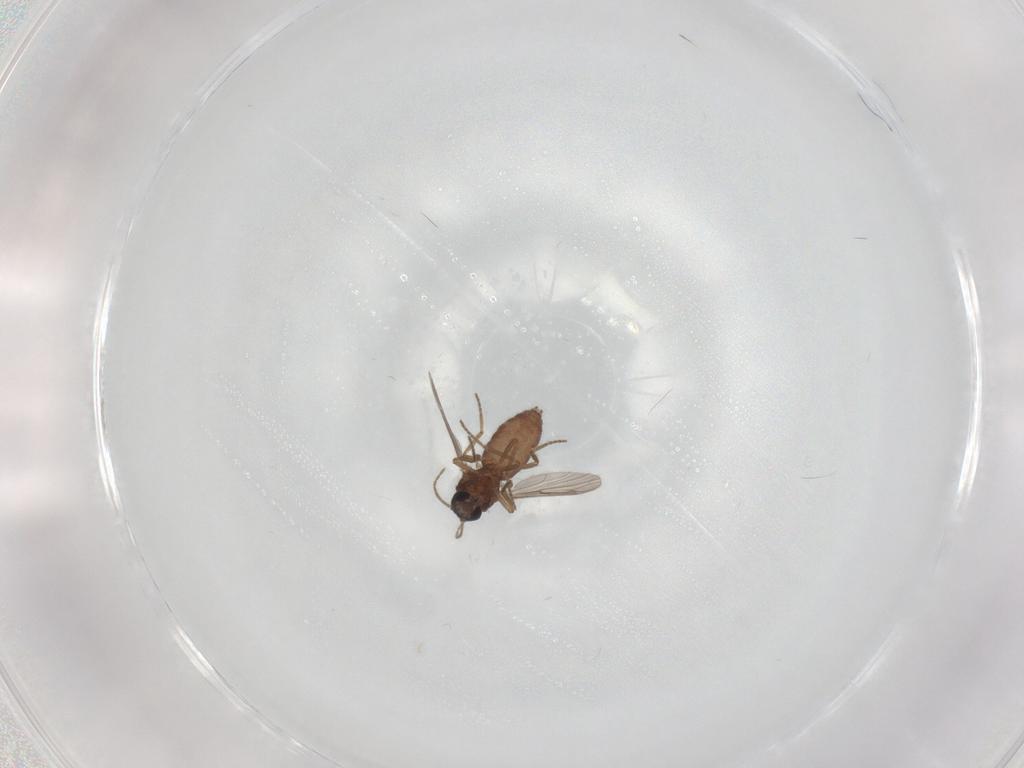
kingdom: Animalia
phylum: Arthropoda
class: Insecta
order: Diptera
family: Ceratopogonidae
